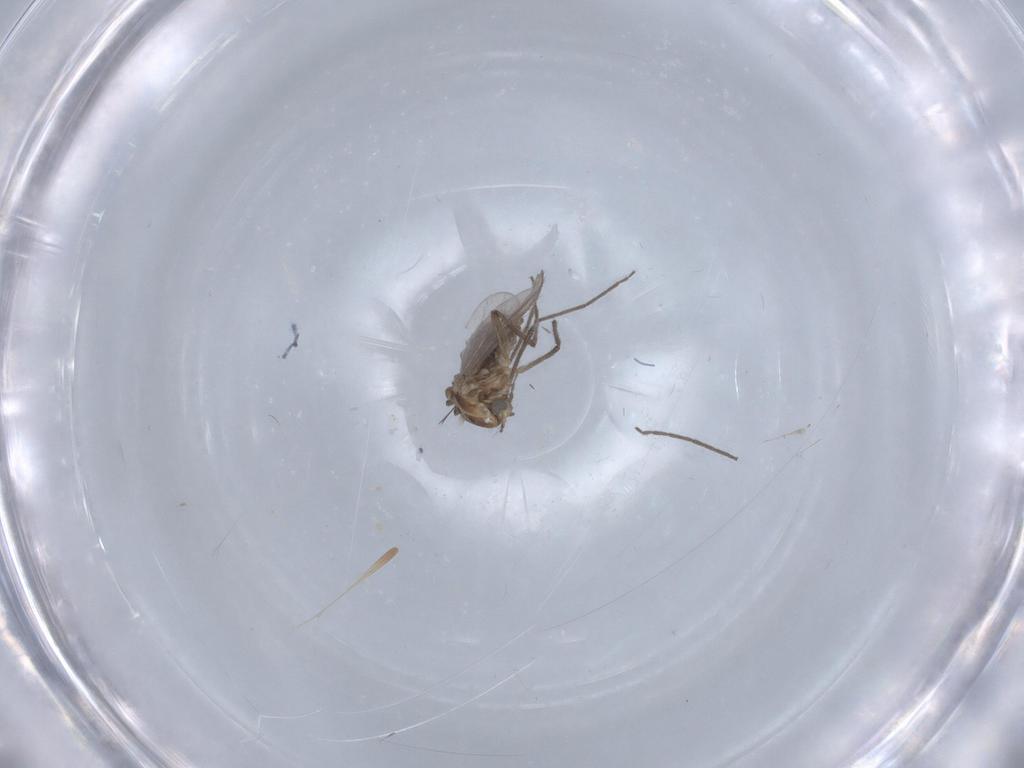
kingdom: Animalia
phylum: Arthropoda
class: Insecta
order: Diptera
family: Chironomidae
